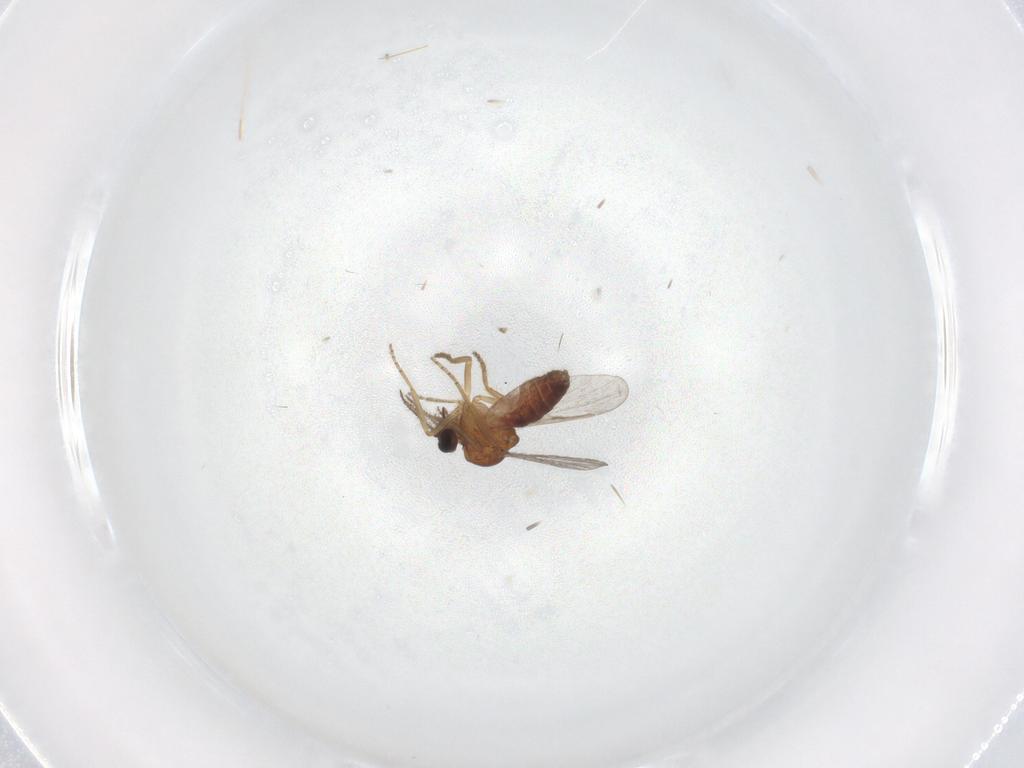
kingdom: Animalia
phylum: Arthropoda
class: Insecta
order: Diptera
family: Ceratopogonidae
